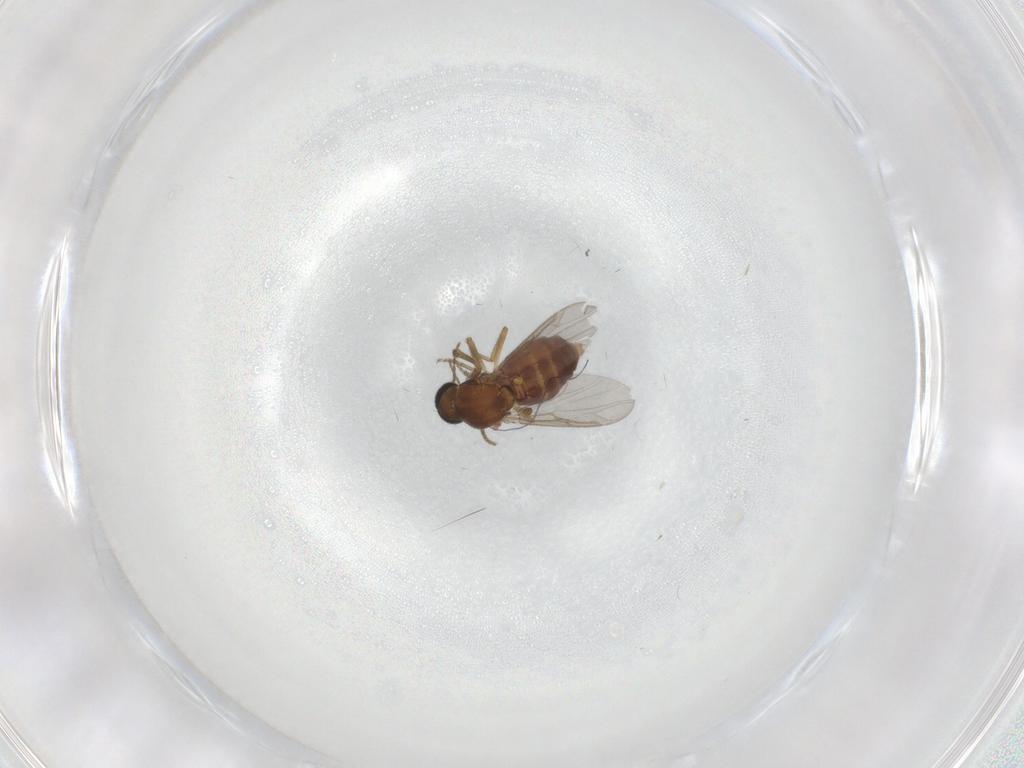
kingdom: Animalia
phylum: Arthropoda
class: Insecta
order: Diptera
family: Ceratopogonidae
